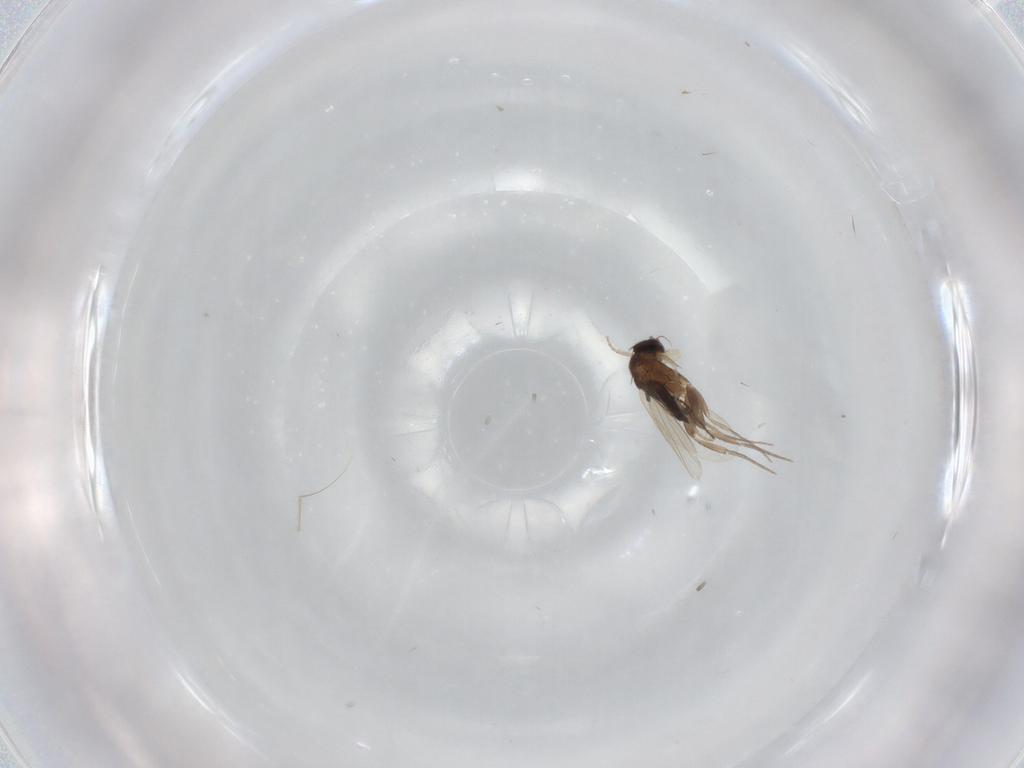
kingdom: Animalia
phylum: Arthropoda
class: Insecta
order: Diptera
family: Phoridae
